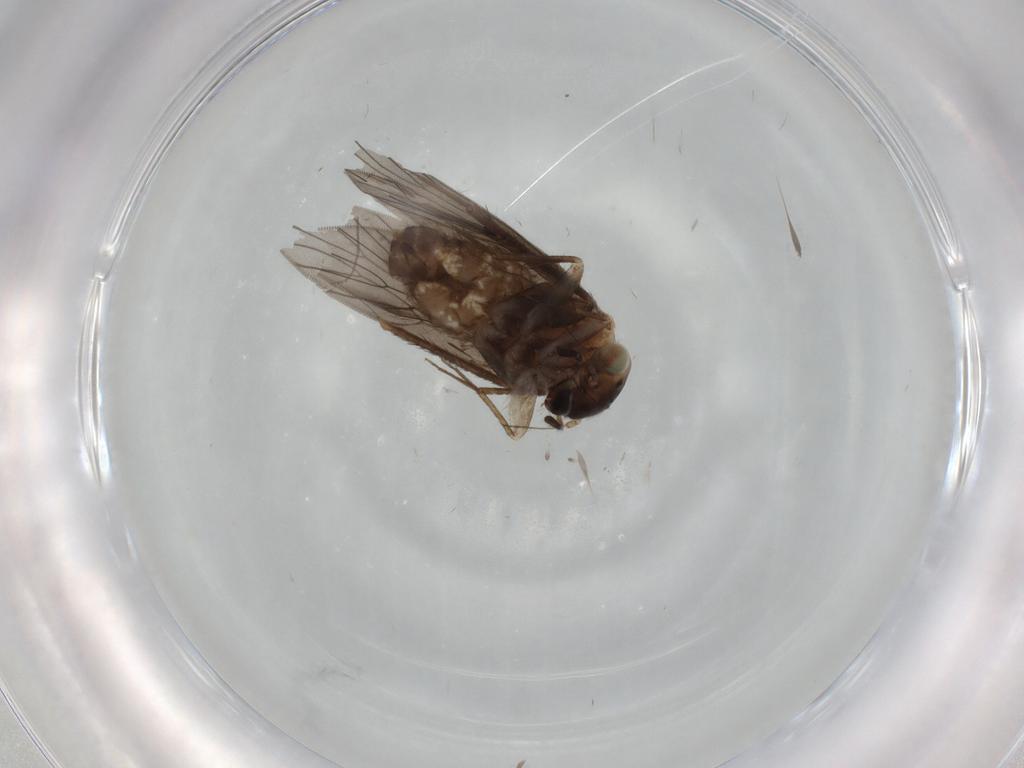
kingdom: Animalia
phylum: Arthropoda
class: Insecta
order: Psocodea
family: Lepidopsocidae
